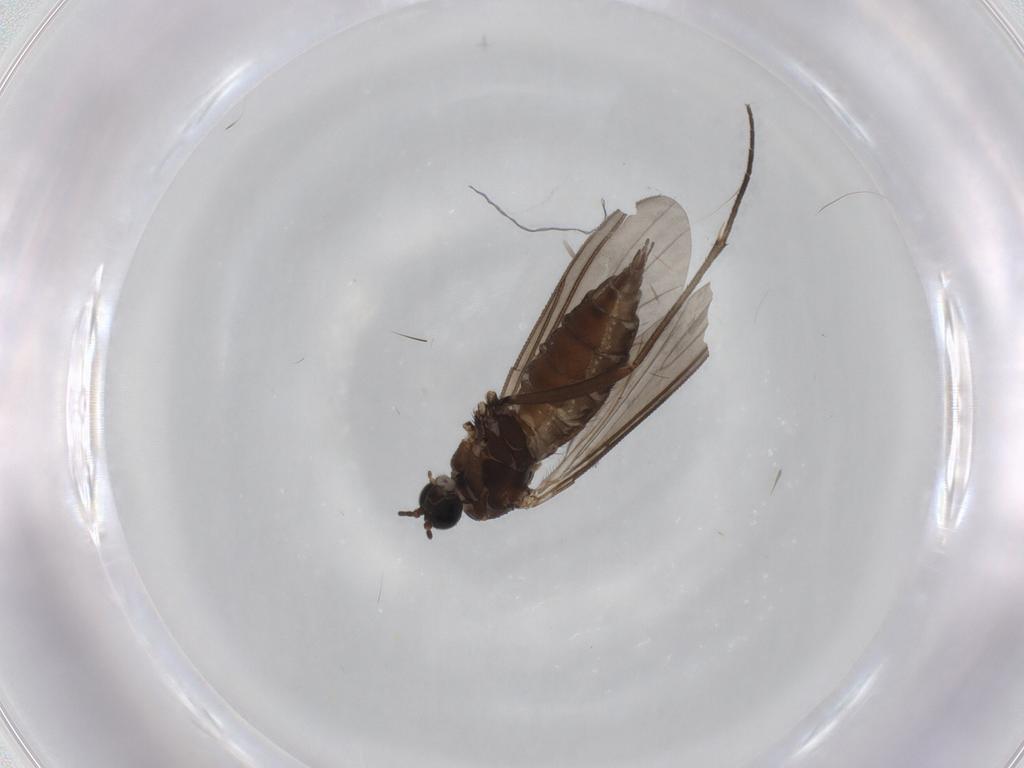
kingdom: Animalia
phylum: Arthropoda
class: Insecta
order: Diptera
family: Sciaridae
